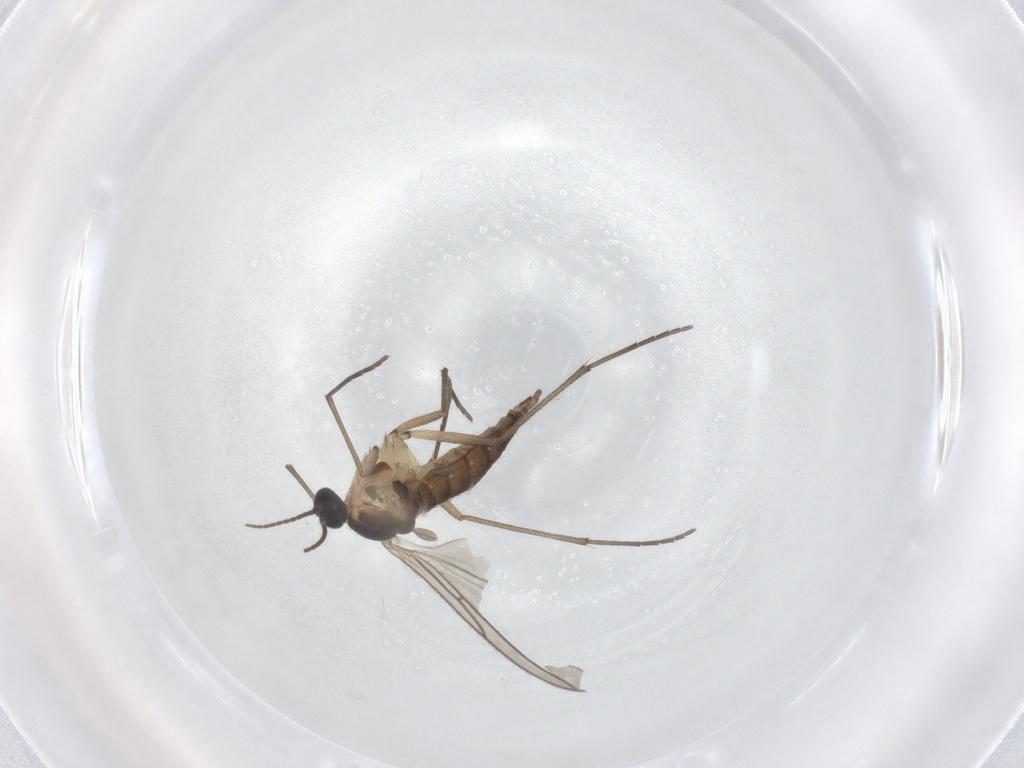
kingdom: Animalia
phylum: Arthropoda
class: Insecta
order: Diptera
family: Sciaridae
